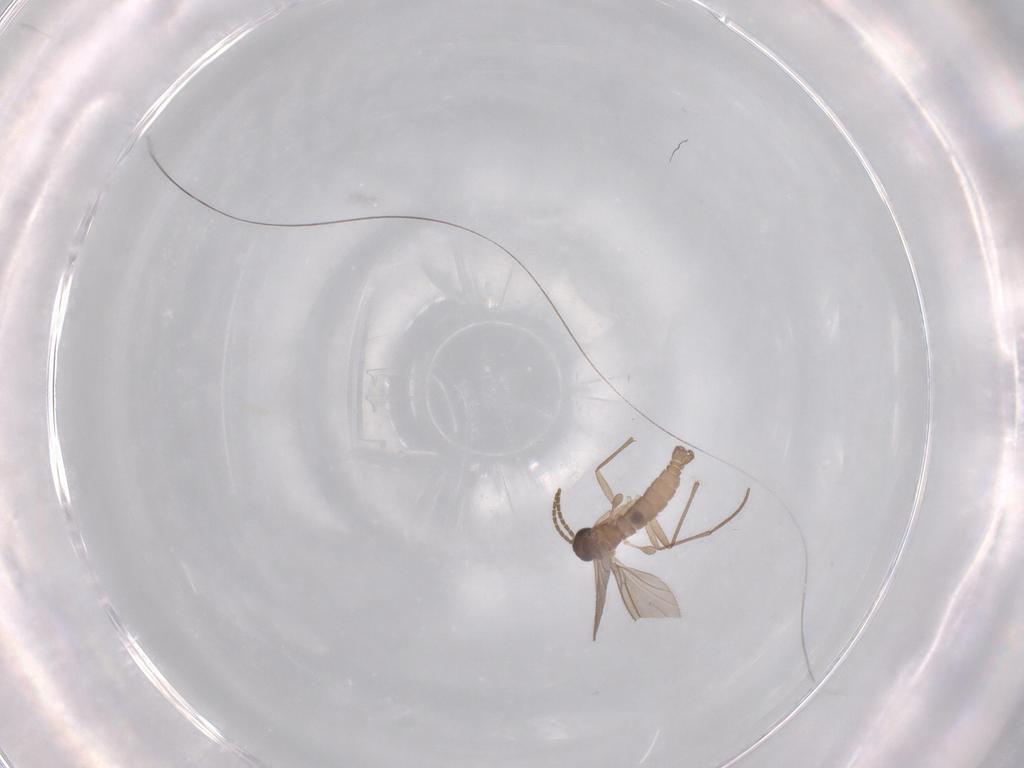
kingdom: Animalia
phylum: Arthropoda
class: Insecta
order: Diptera
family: Sciaridae
